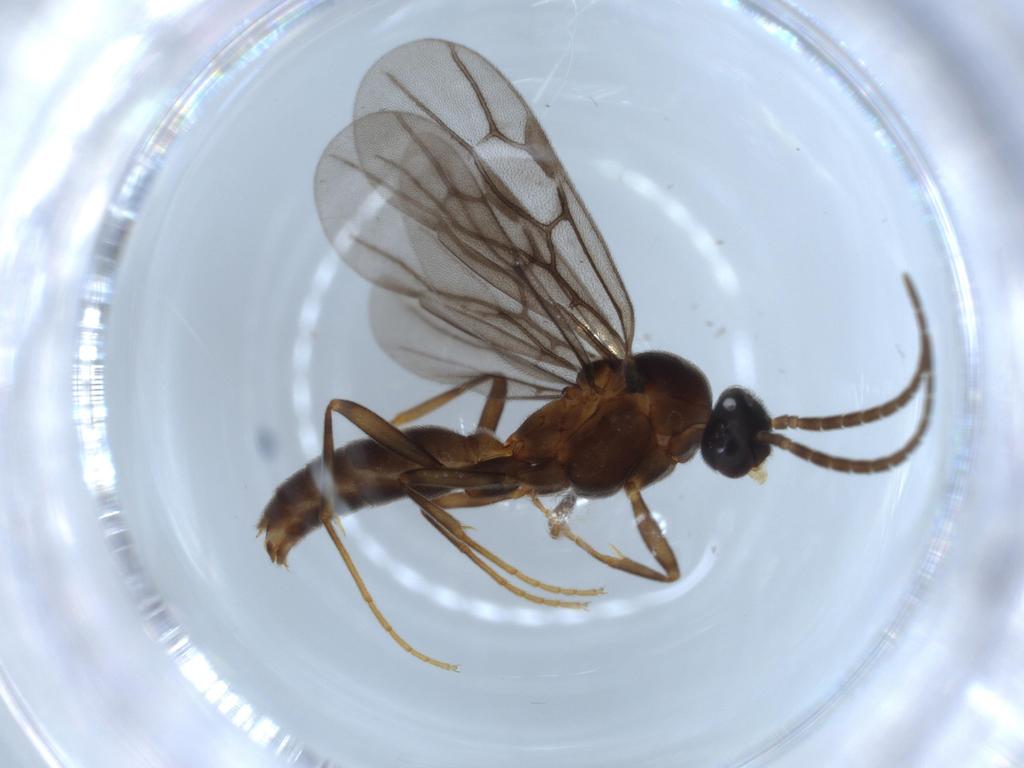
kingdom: Animalia
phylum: Arthropoda
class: Insecta
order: Hymenoptera
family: Formicidae
